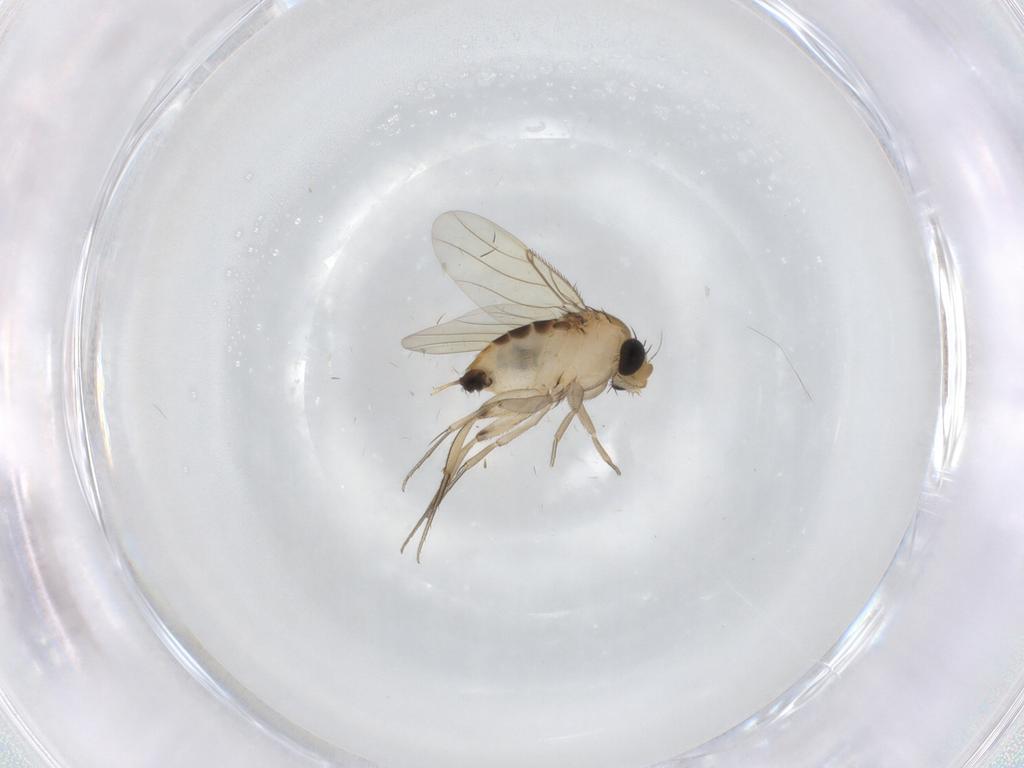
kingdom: Animalia
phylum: Arthropoda
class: Insecta
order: Diptera
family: Phoridae
